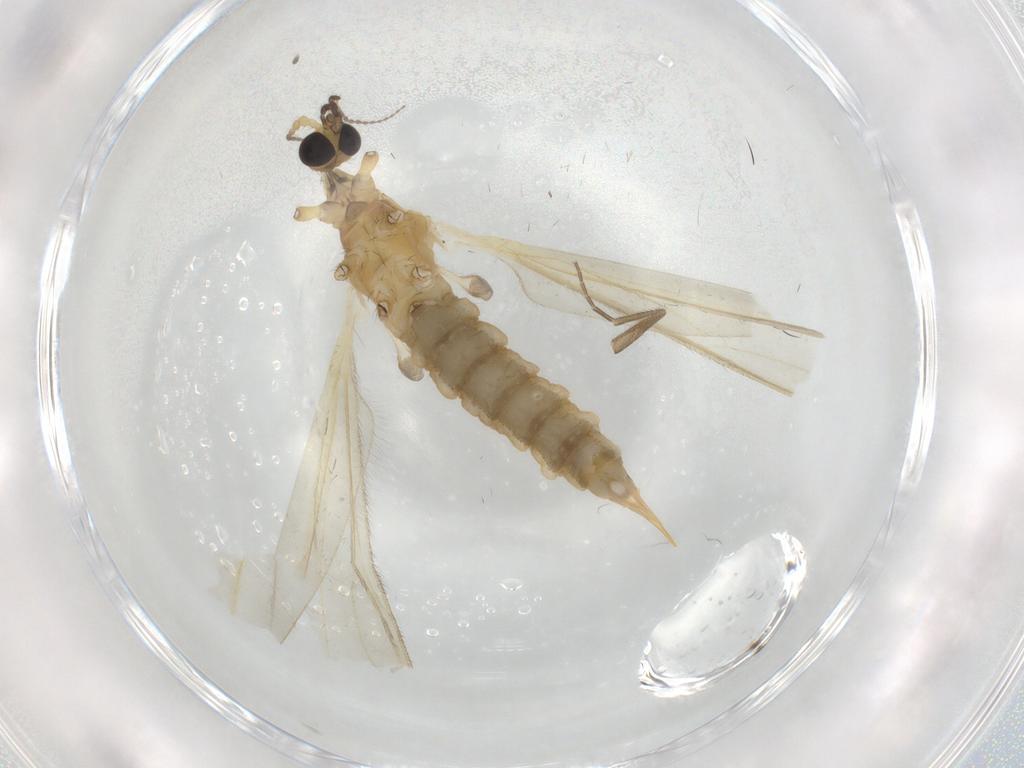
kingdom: Animalia
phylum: Arthropoda
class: Insecta
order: Diptera
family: Limoniidae
